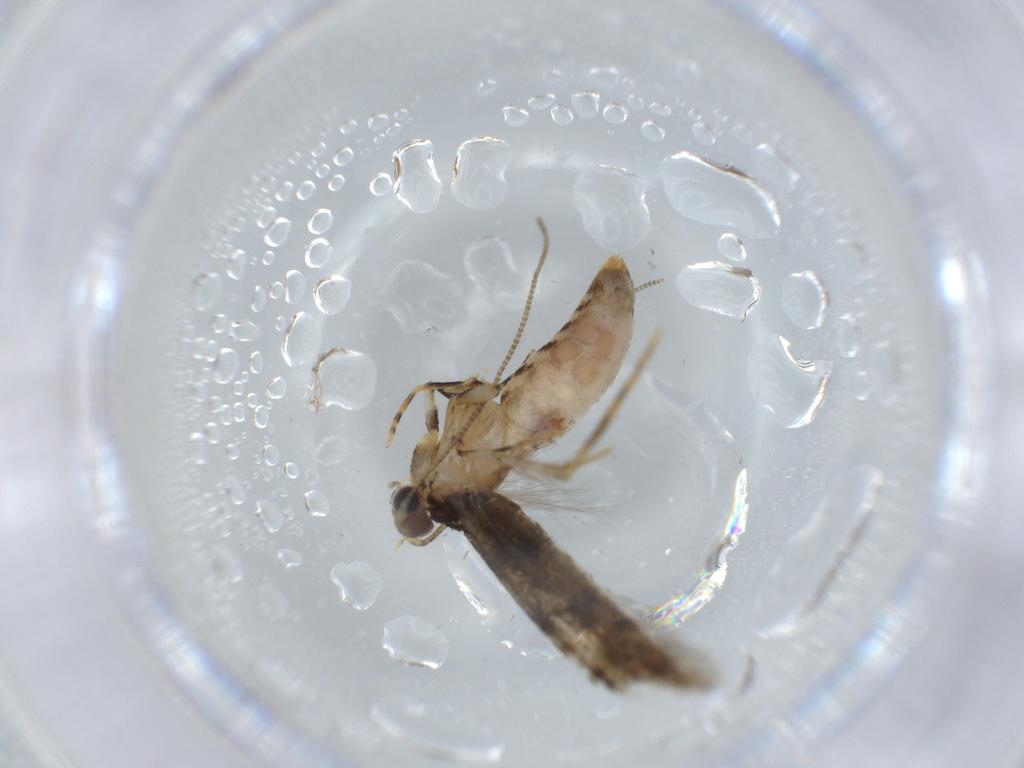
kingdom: Animalia
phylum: Arthropoda
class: Insecta
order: Lepidoptera
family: Tineidae
